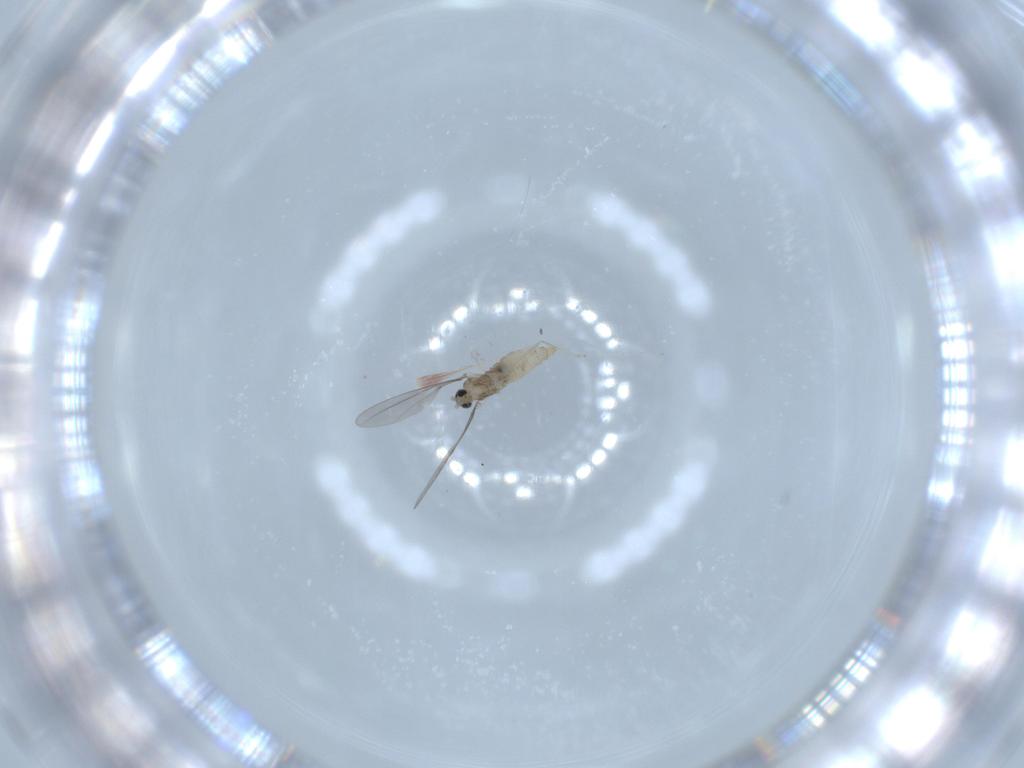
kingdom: Animalia
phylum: Arthropoda
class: Insecta
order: Diptera
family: Cecidomyiidae
